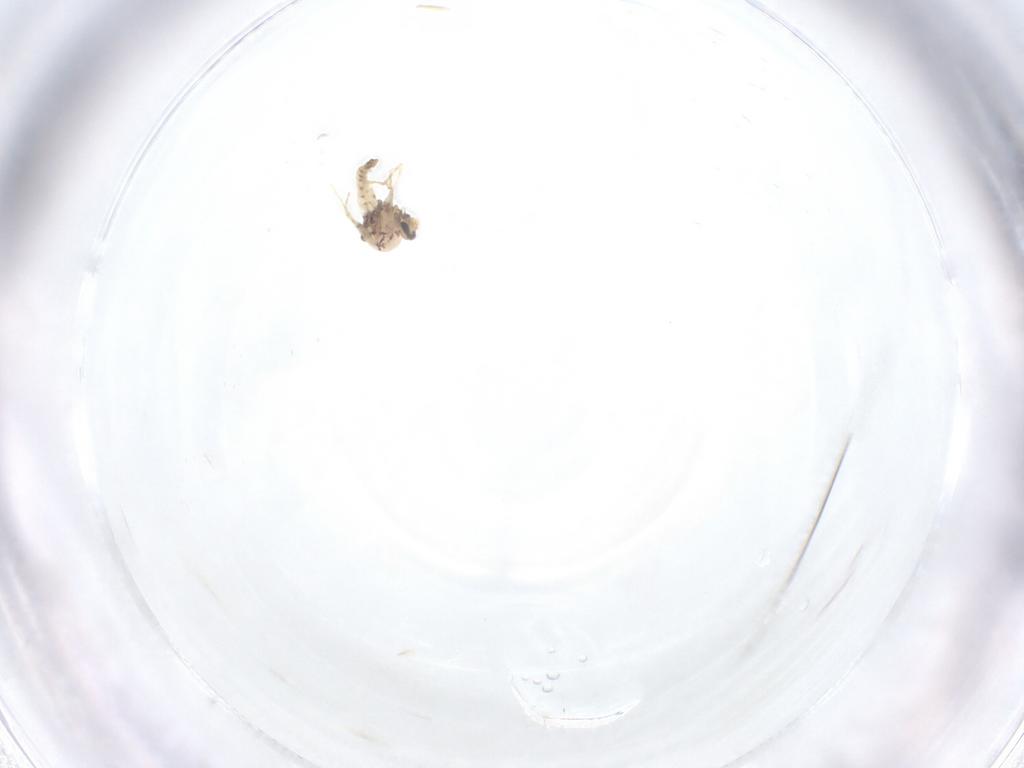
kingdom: Animalia
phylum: Arthropoda
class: Insecta
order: Diptera
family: Ceratopogonidae
